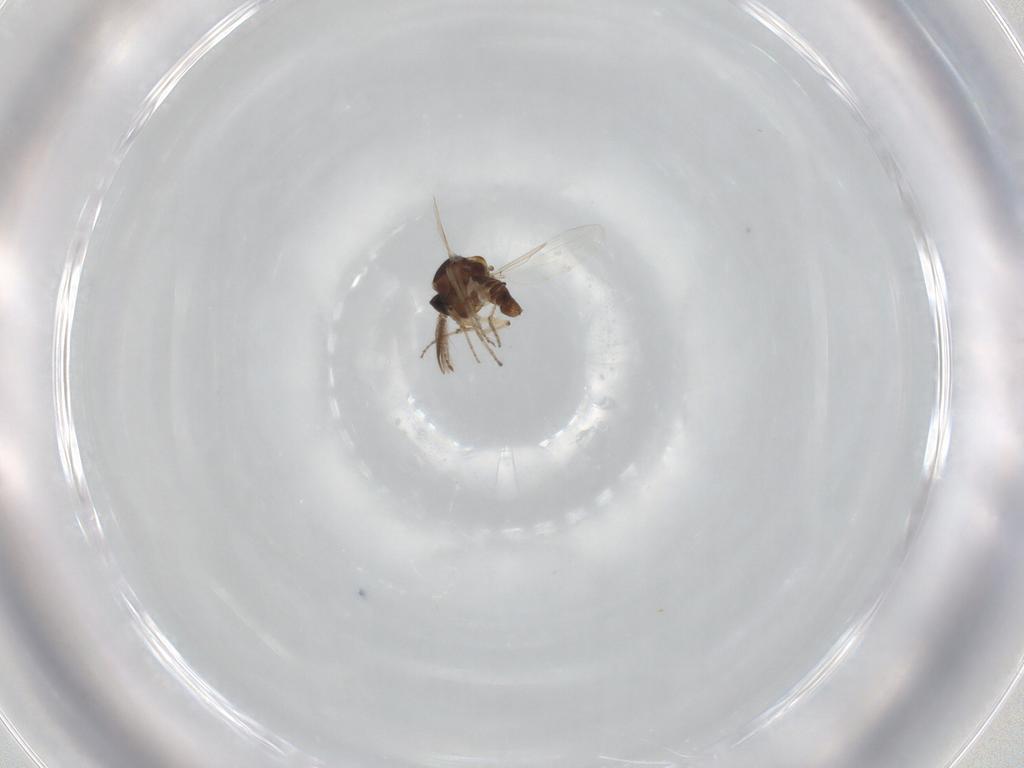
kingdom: Animalia
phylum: Arthropoda
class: Insecta
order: Diptera
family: Ceratopogonidae
